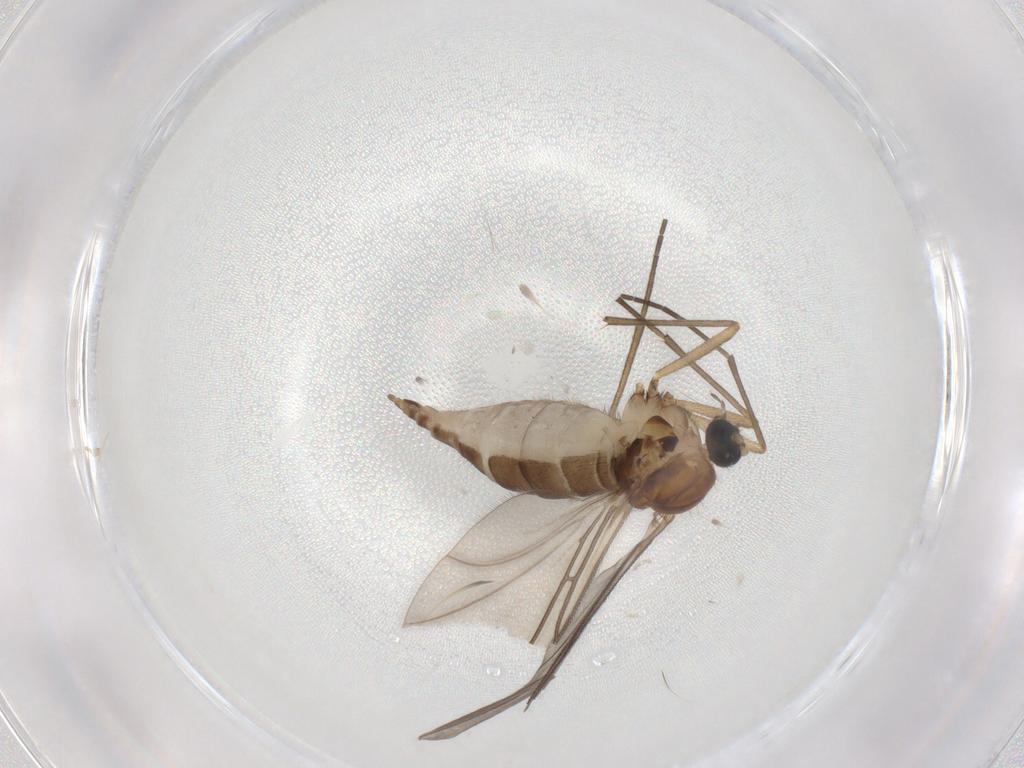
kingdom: Animalia
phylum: Arthropoda
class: Insecta
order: Diptera
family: Sciaridae
